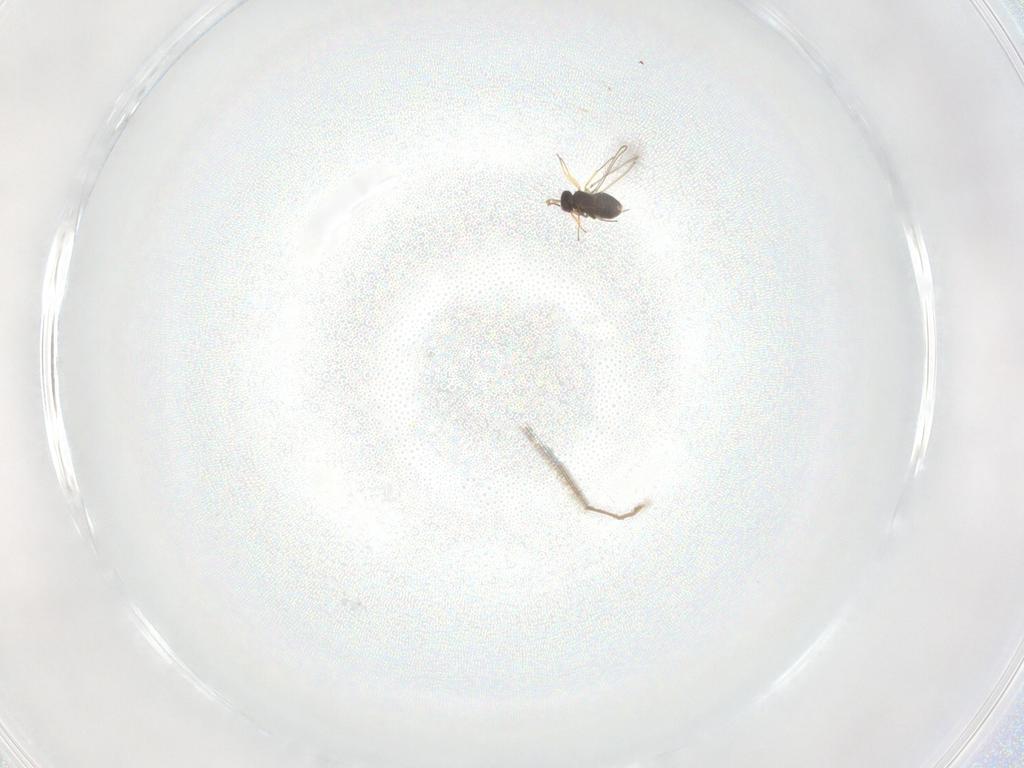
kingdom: Animalia
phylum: Arthropoda
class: Insecta
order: Hymenoptera
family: Mymaridae
